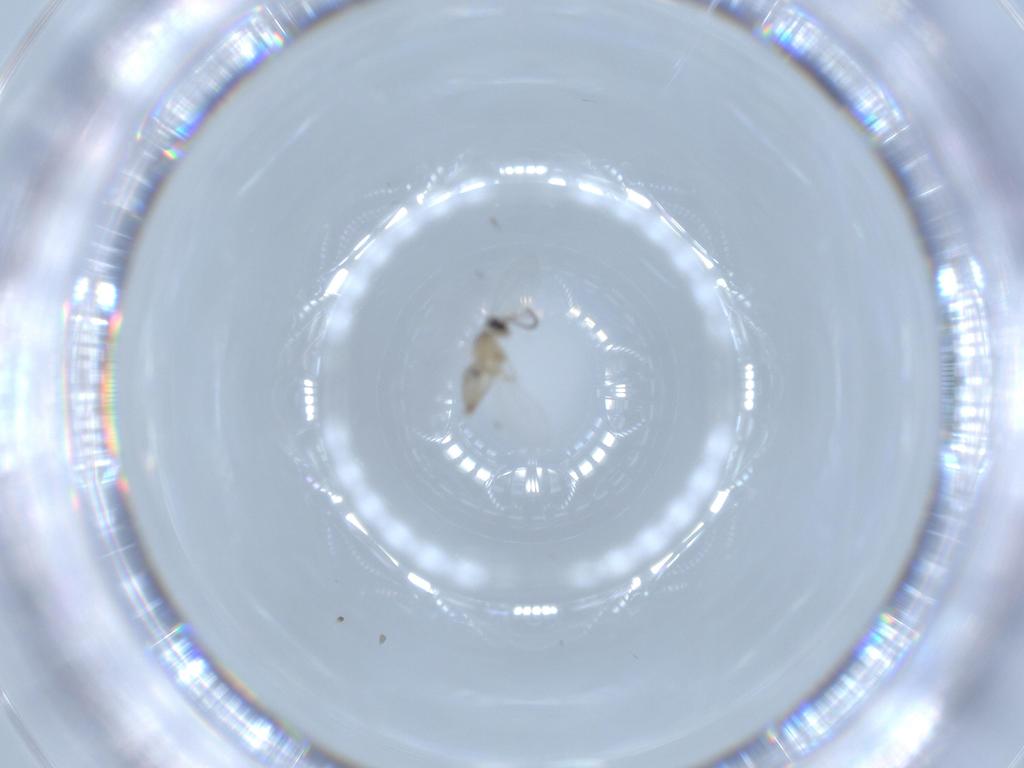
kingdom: Animalia
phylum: Arthropoda
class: Insecta
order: Diptera
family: Cecidomyiidae
